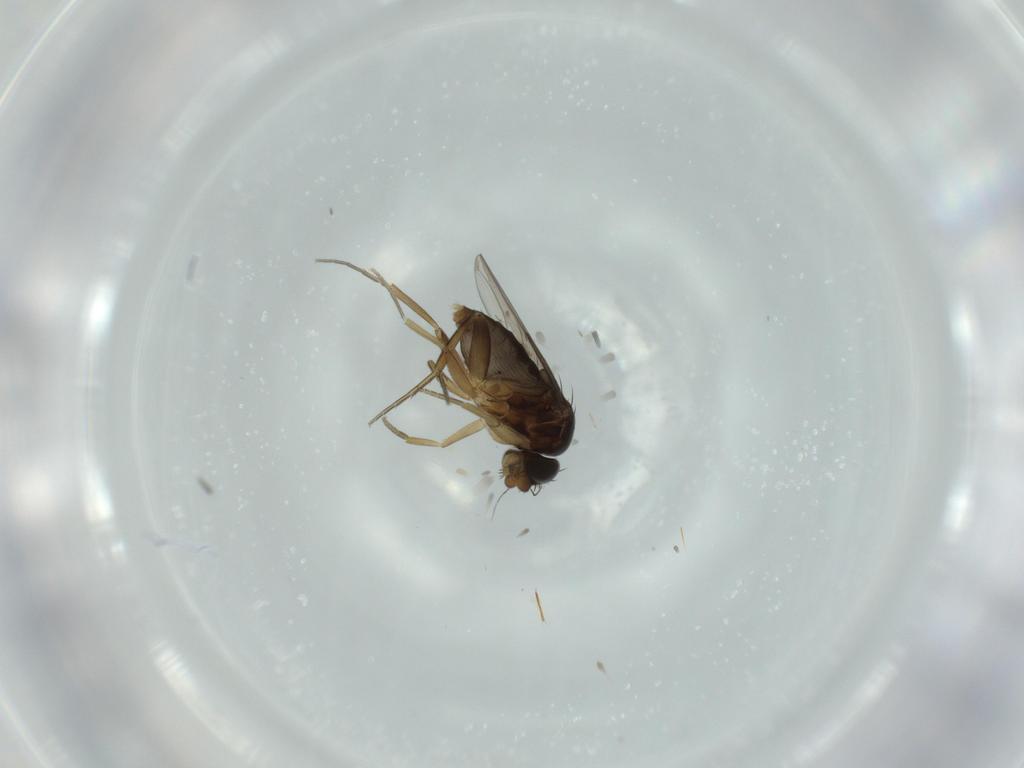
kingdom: Animalia
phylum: Arthropoda
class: Insecta
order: Diptera
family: Phoridae
